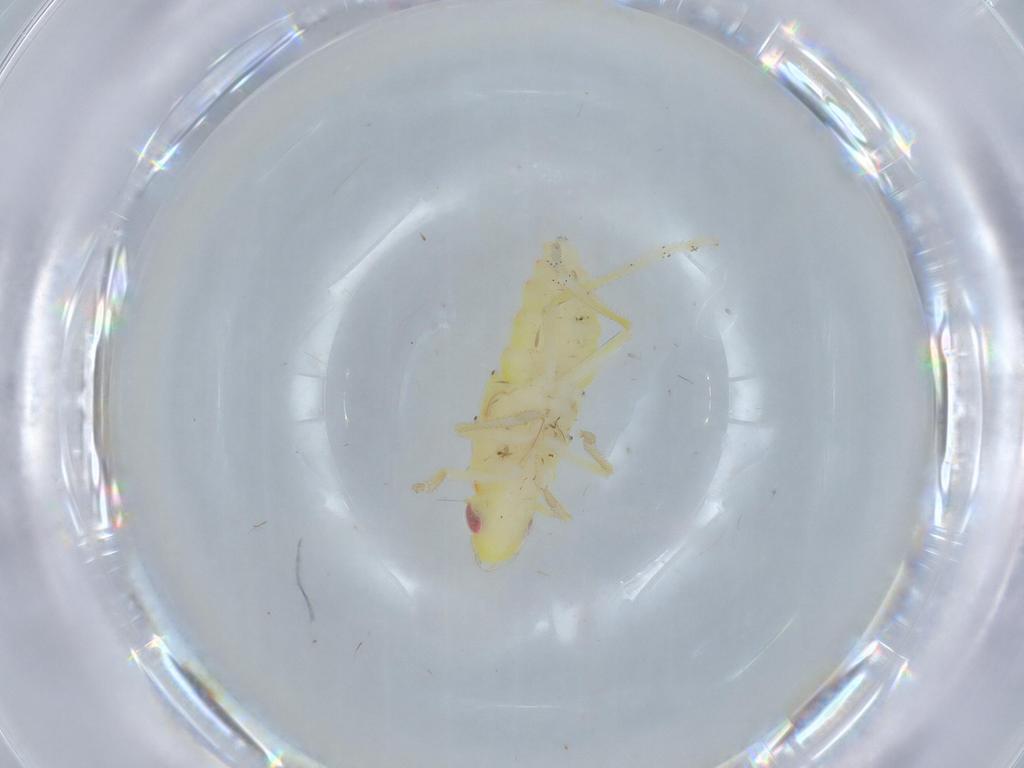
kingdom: Animalia
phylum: Arthropoda
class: Insecta
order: Hemiptera
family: Tropiduchidae
